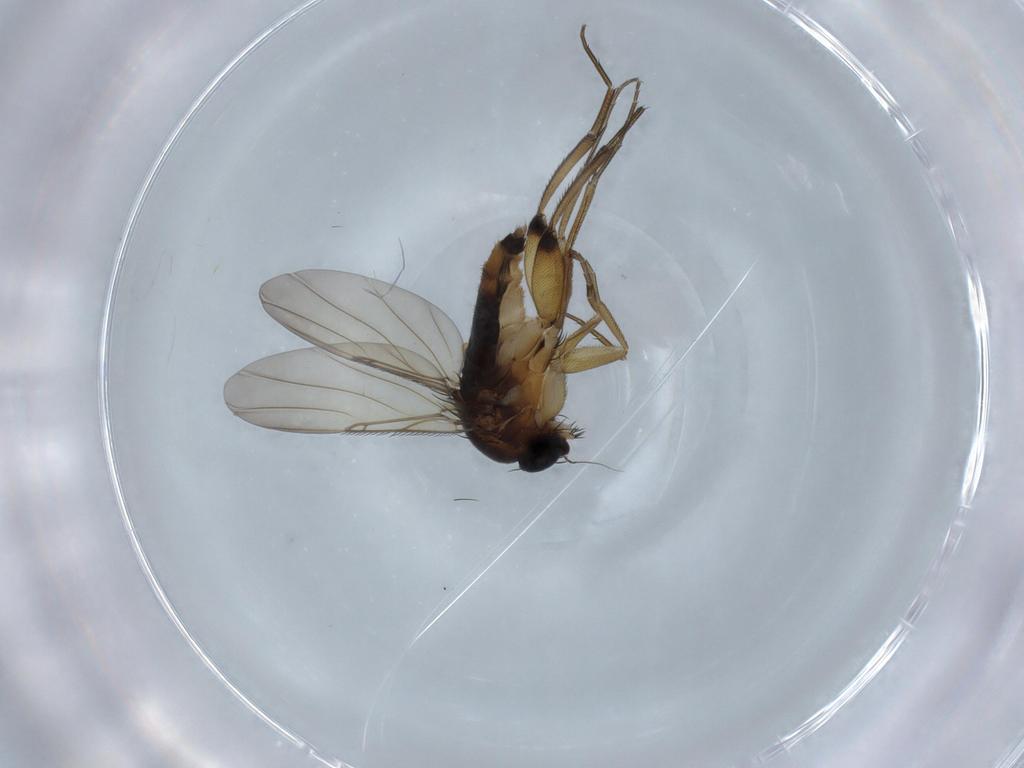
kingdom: Animalia
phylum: Arthropoda
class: Insecta
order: Diptera
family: Phoridae
